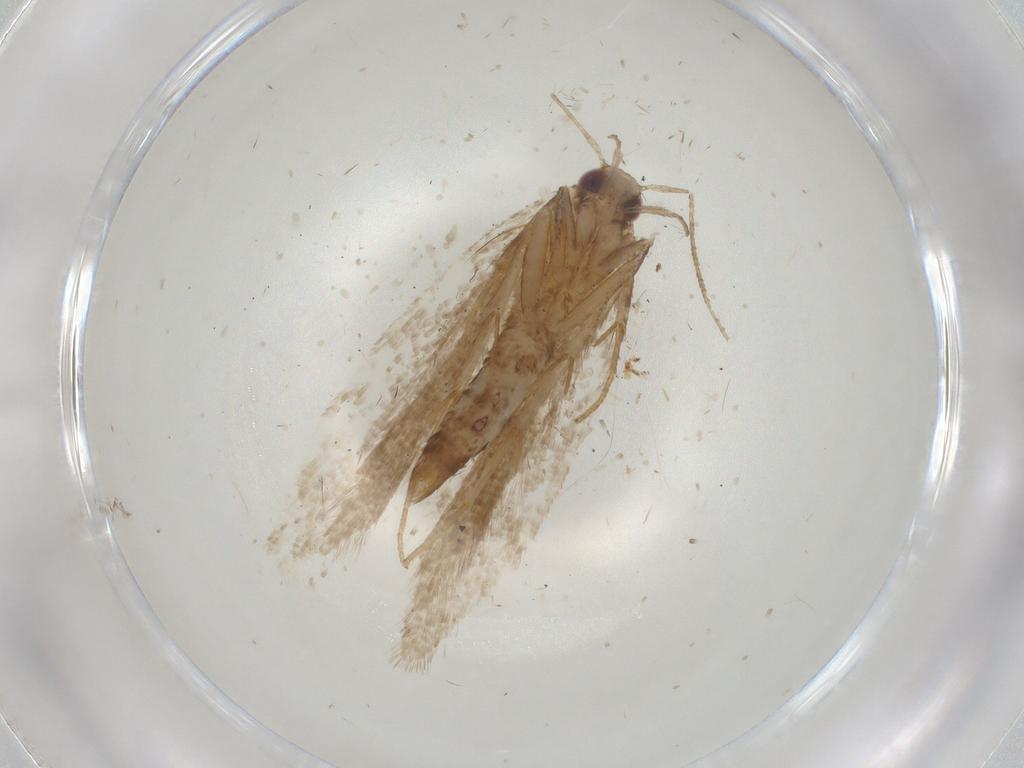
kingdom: Animalia
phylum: Arthropoda
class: Insecta
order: Lepidoptera
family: Gelechiidae
